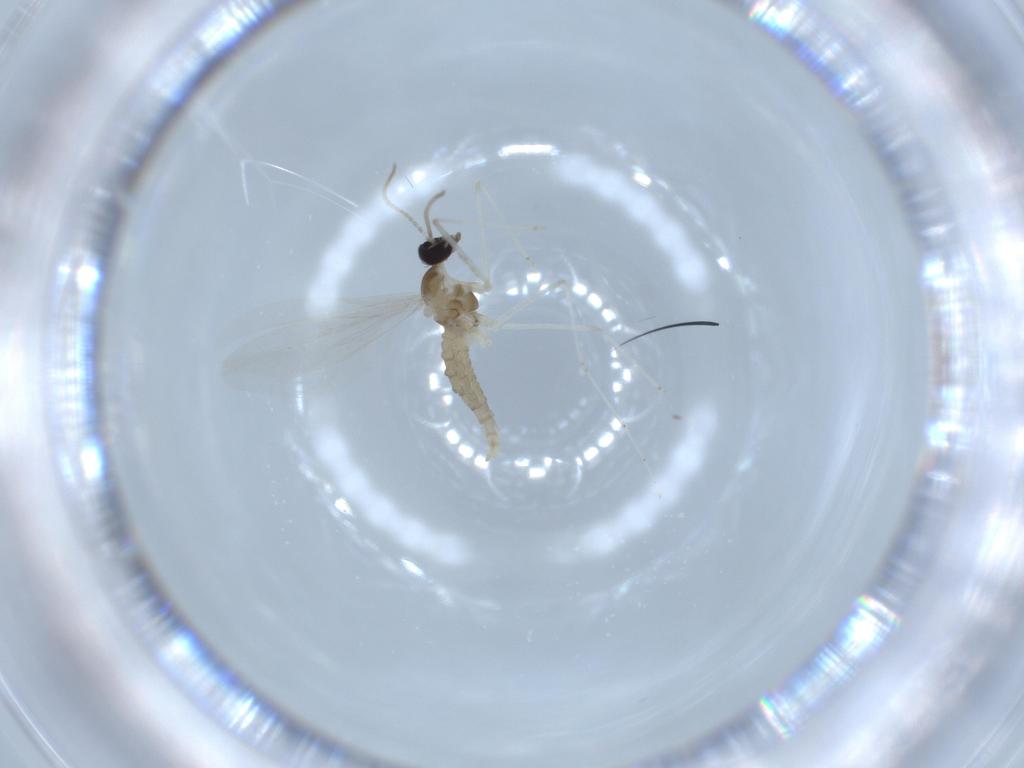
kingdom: Animalia
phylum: Arthropoda
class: Insecta
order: Diptera
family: Cecidomyiidae
